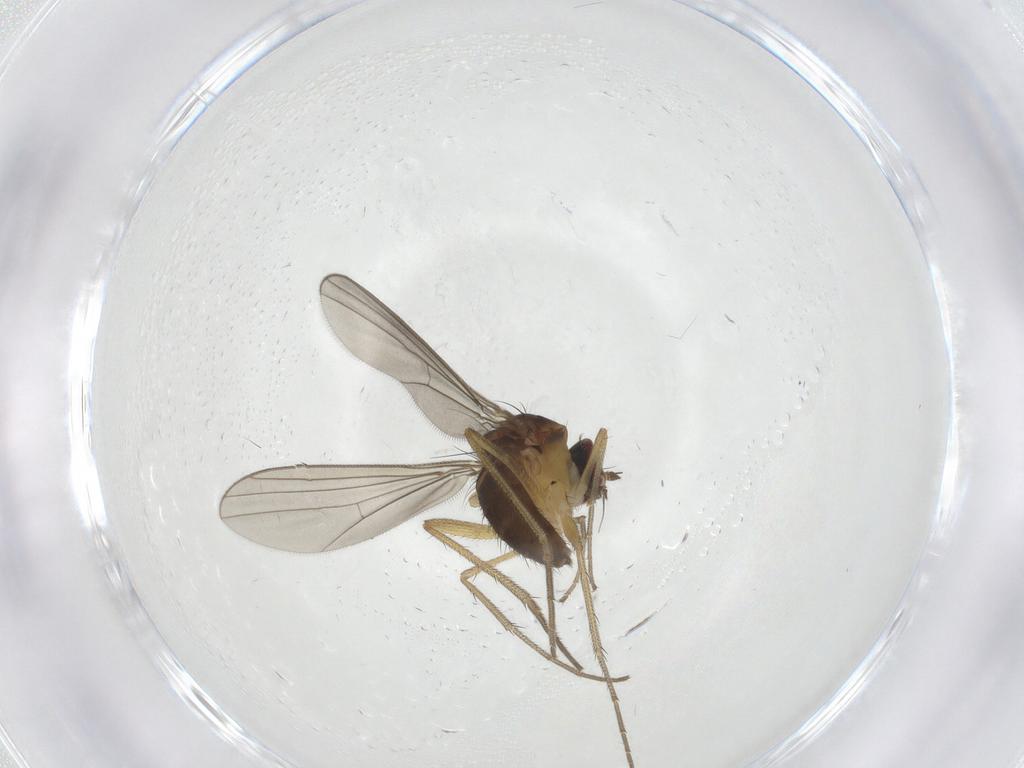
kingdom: Animalia
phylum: Arthropoda
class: Insecta
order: Diptera
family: Dolichopodidae
